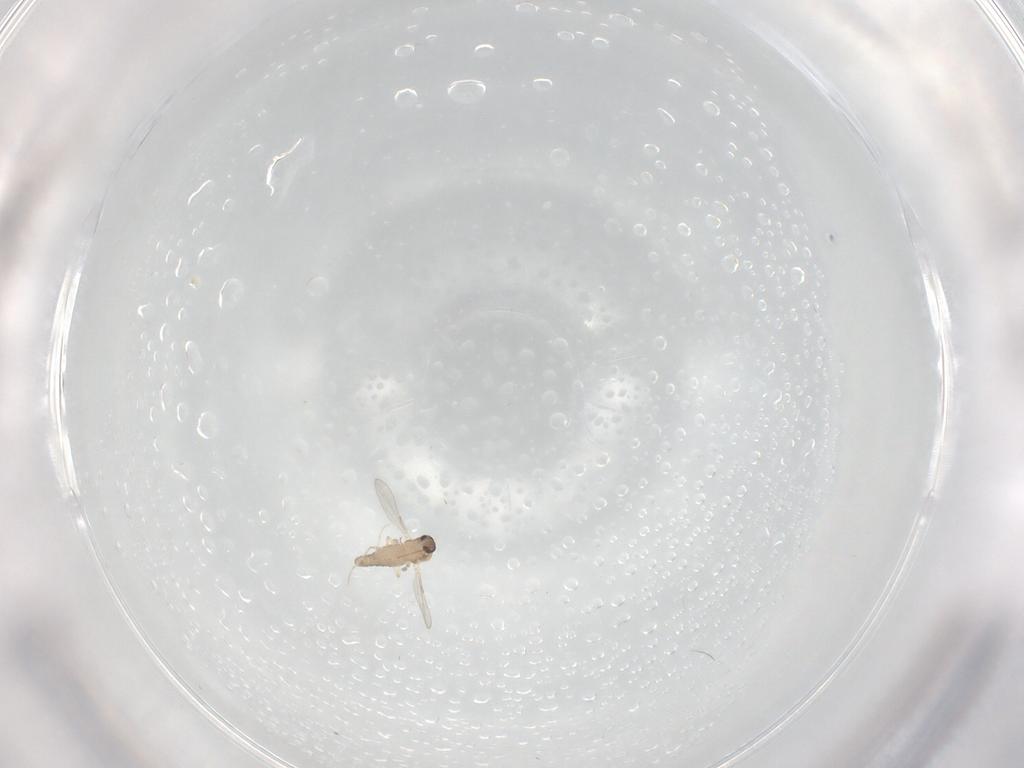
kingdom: Animalia
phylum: Arthropoda
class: Insecta
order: Diptera
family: Ceratopogonidae
